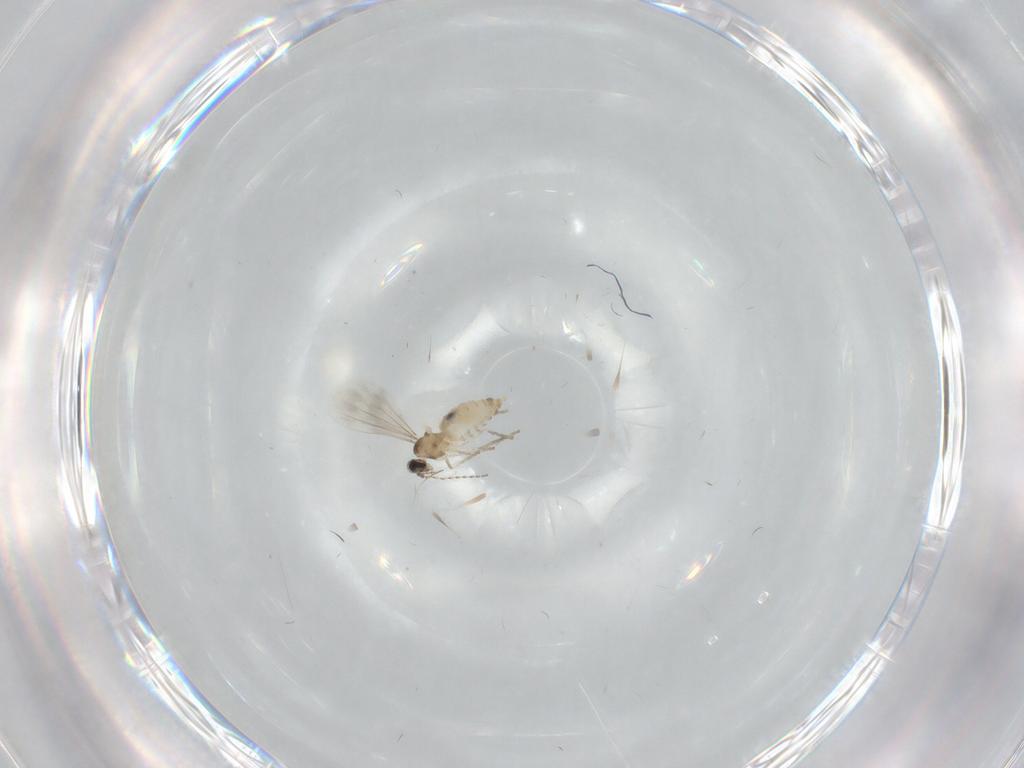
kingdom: Animalia
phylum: Arthropoda
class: Insecta
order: Diptera
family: Cecidomyiidae
